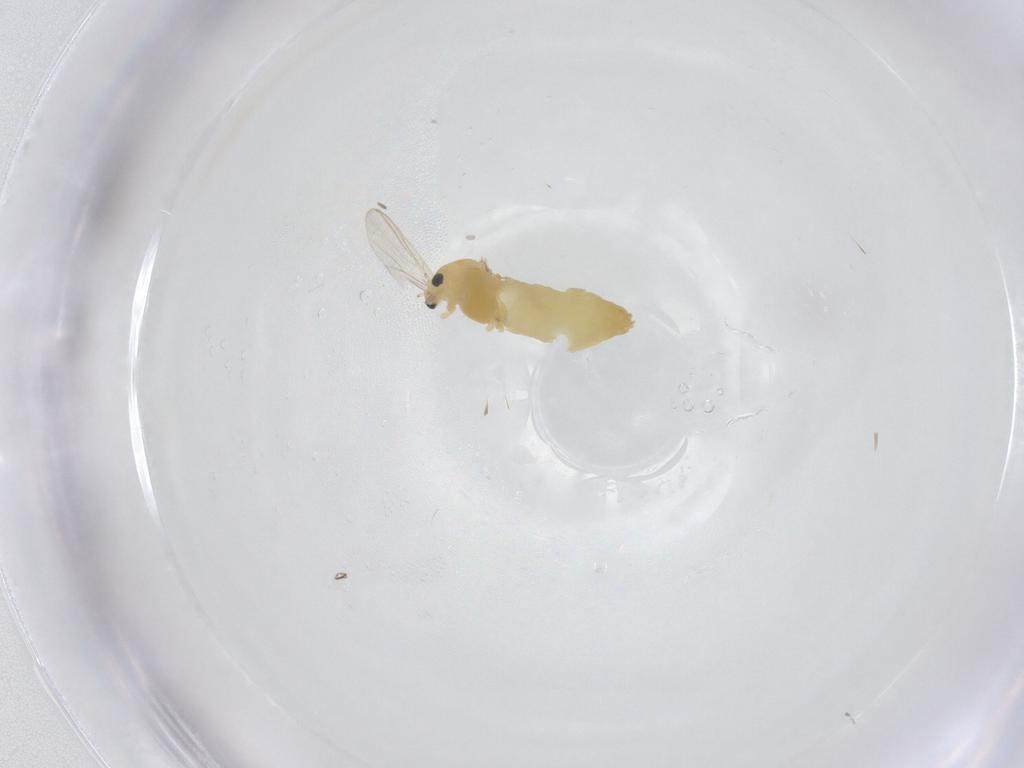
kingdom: Animalia
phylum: Arthropoda
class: Insecta
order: Diptera
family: Chironomidae
